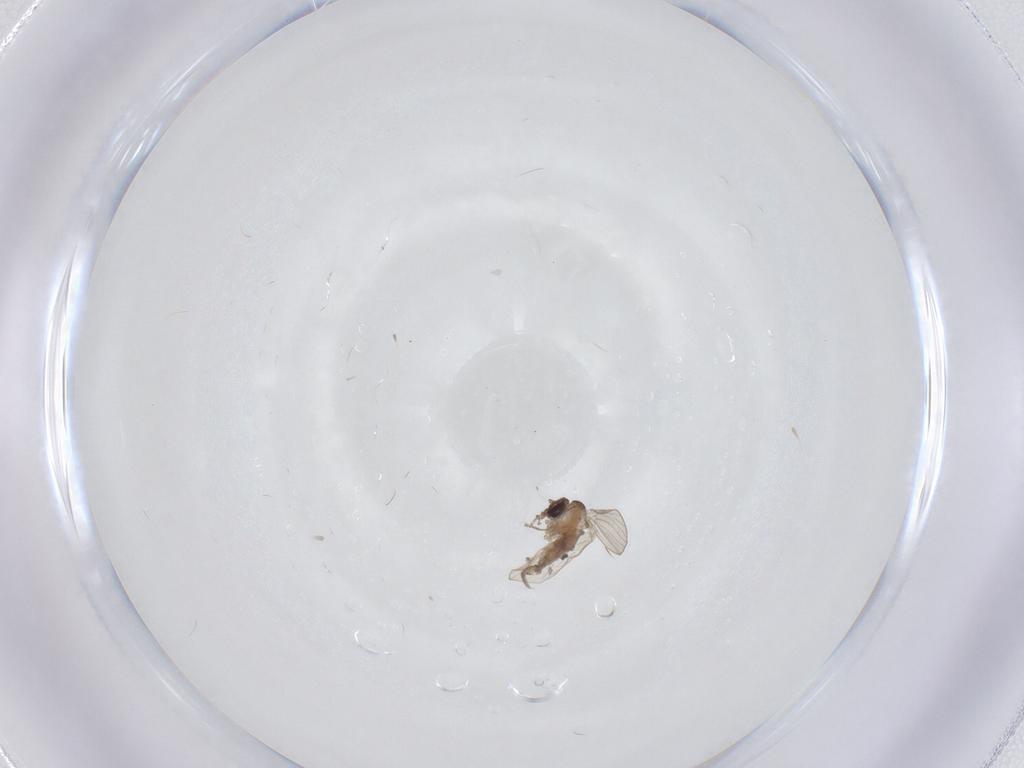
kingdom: Animalia
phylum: Arthropoda
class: Insecta
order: Diptera
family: Psychodidae
